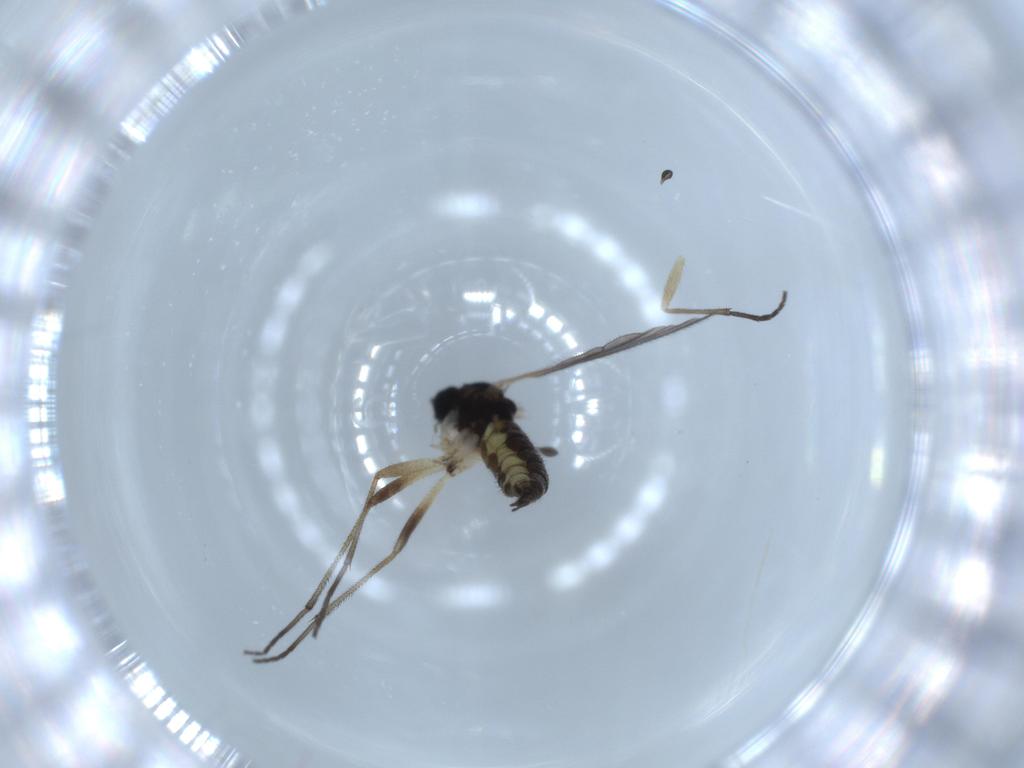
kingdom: Animalia
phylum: Arthropoda
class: Insecta
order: Diptera
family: Sciaridae
